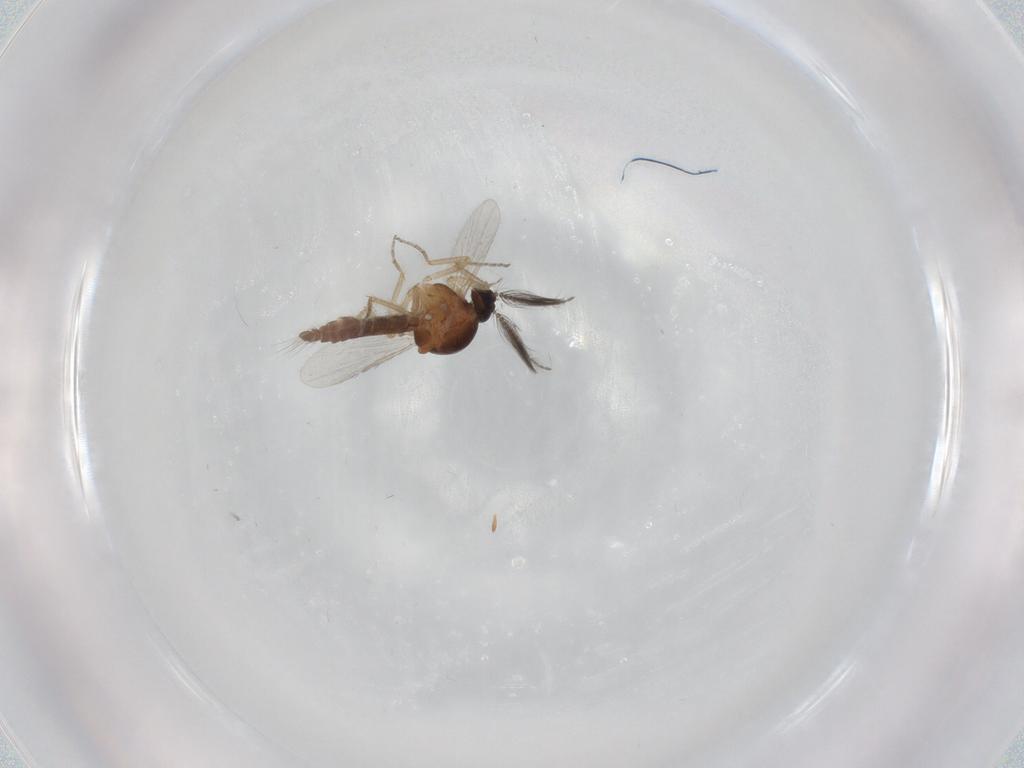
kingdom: Animalia
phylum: Arthropoda
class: Insecta
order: Diptera
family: Ceratopogonidae
